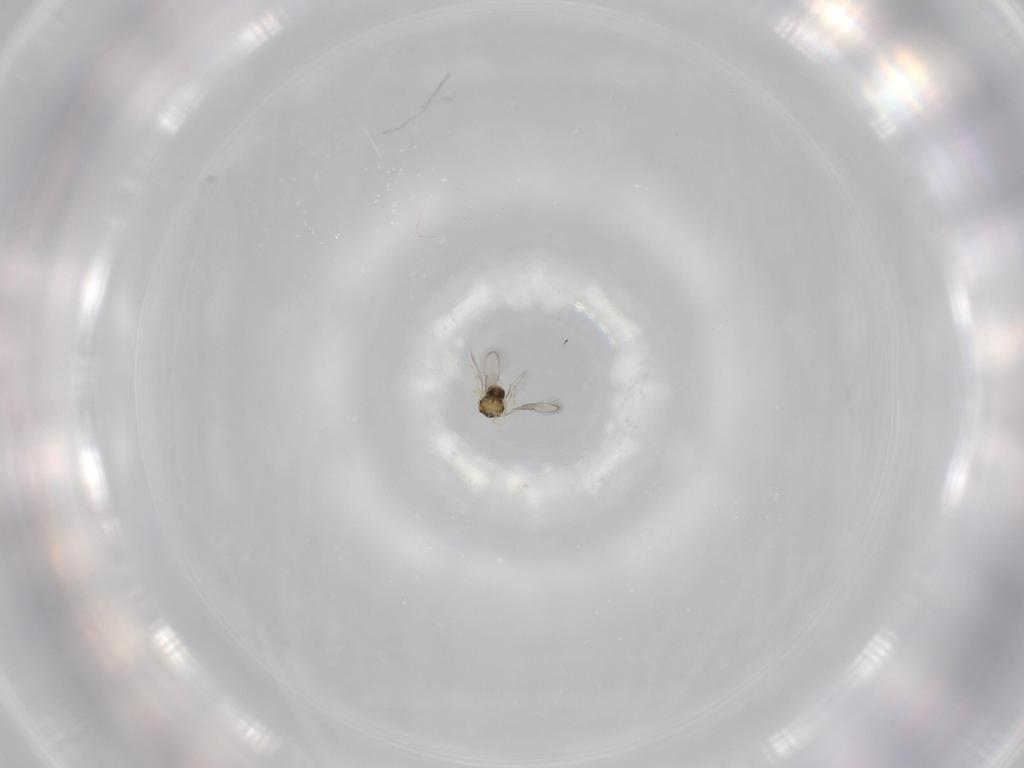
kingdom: Animalia
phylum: Arthropoda
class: Insecta
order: Hymenoptera
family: Aphelinidae
